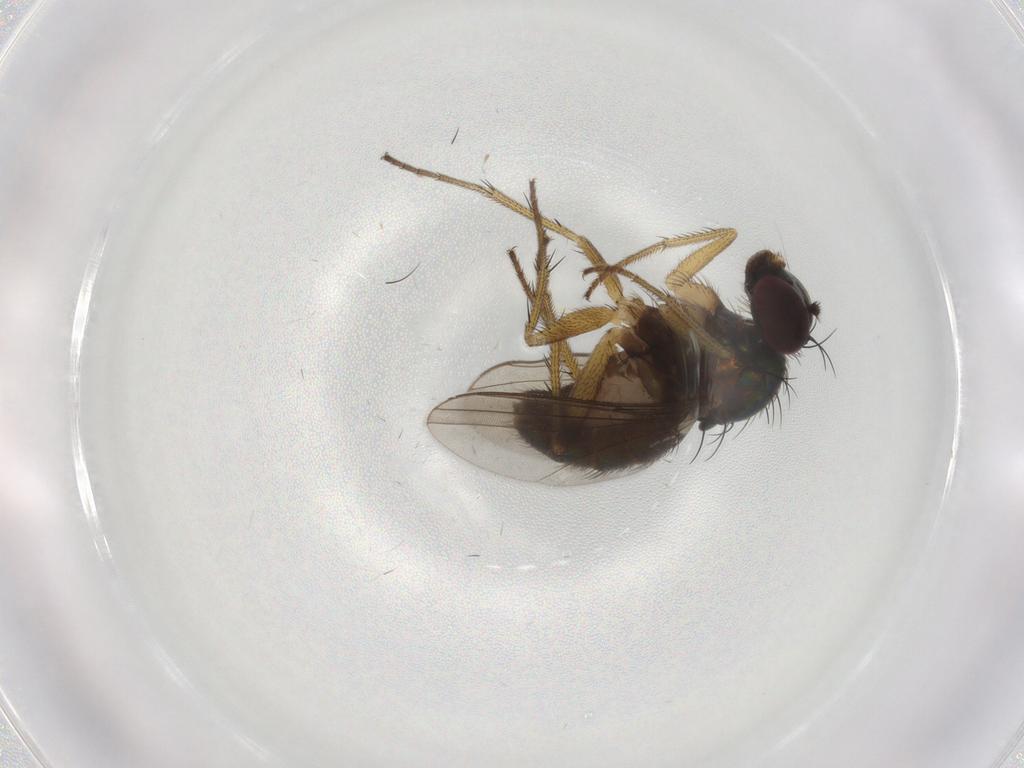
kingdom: Animalia
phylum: Arthropoda
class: Insecta
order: Diptera
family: Dolichopodidae
